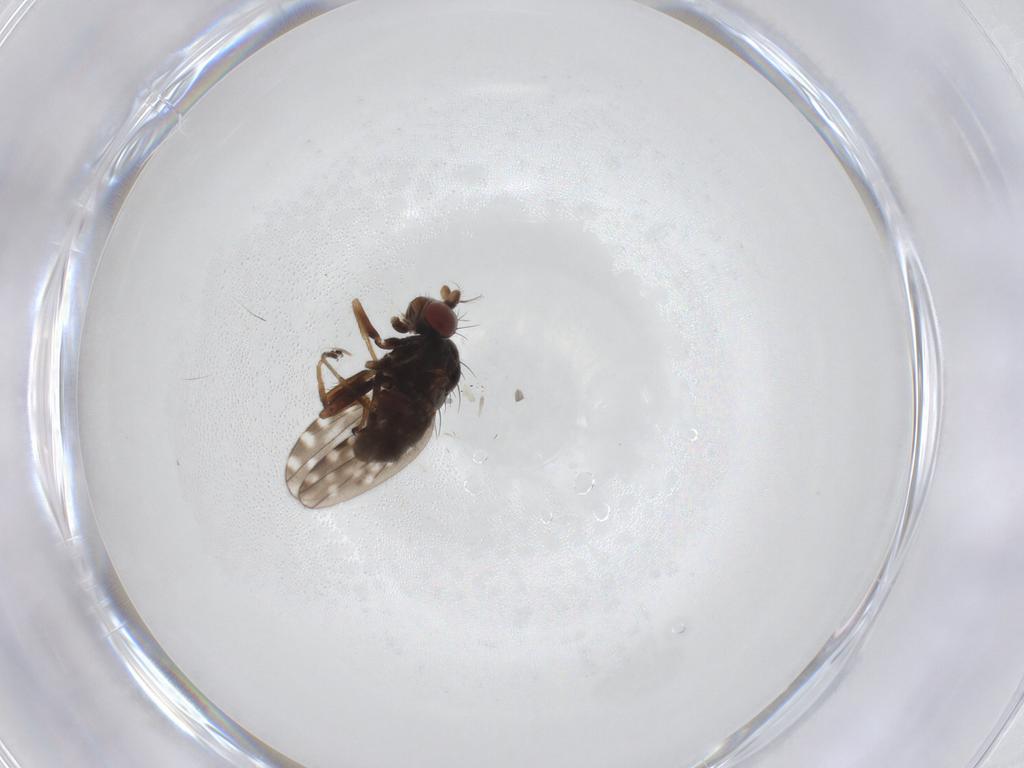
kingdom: Animalia
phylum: Arthropoda
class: Insecta
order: Diptera
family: Ephydridae
